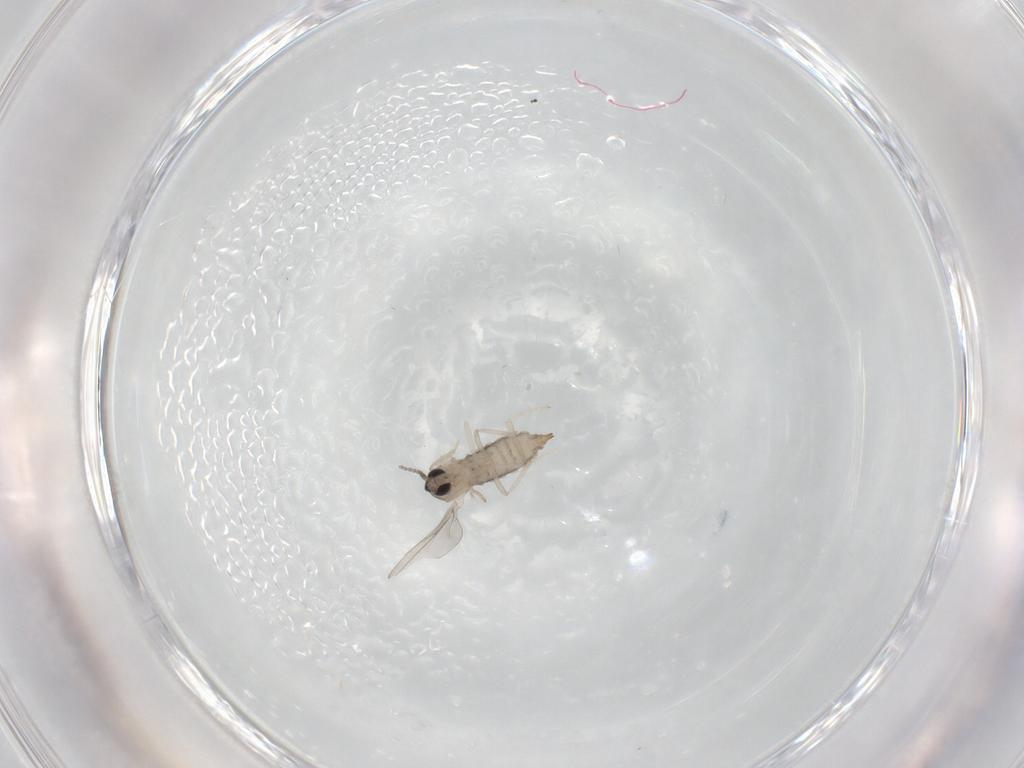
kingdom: Animalia
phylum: Arthropoda
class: Insecta
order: Diptera
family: Cecidomyiidae
